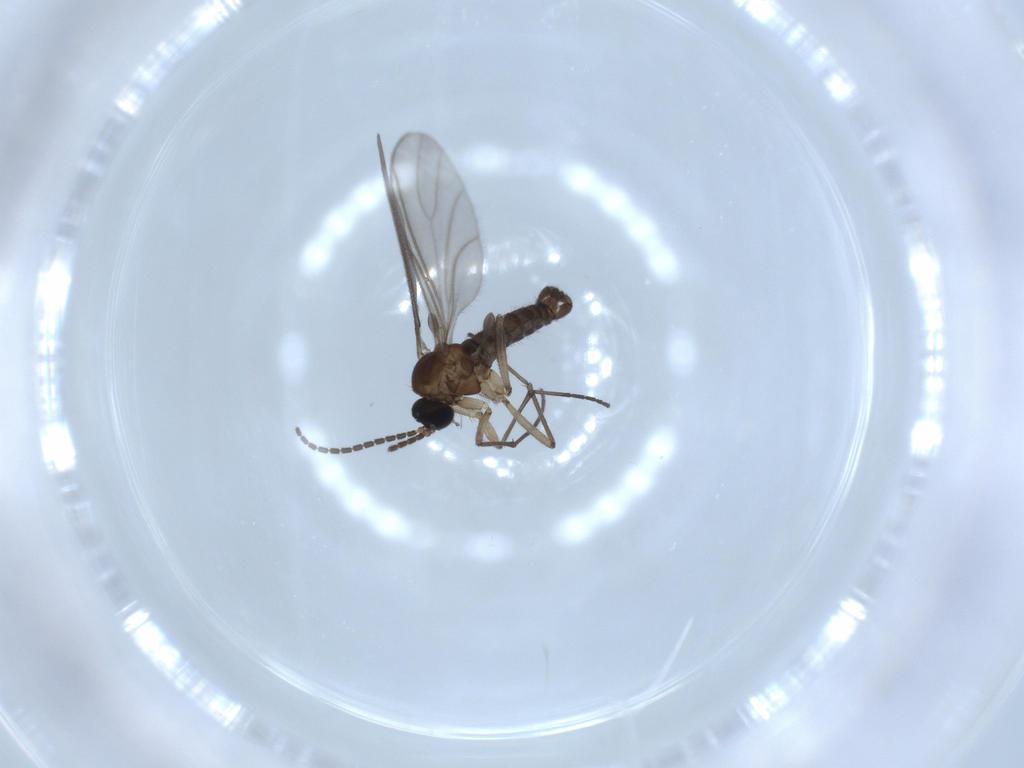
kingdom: Animalia
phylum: Arthropoda
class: Insecta
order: Diptera
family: Sciaridae
